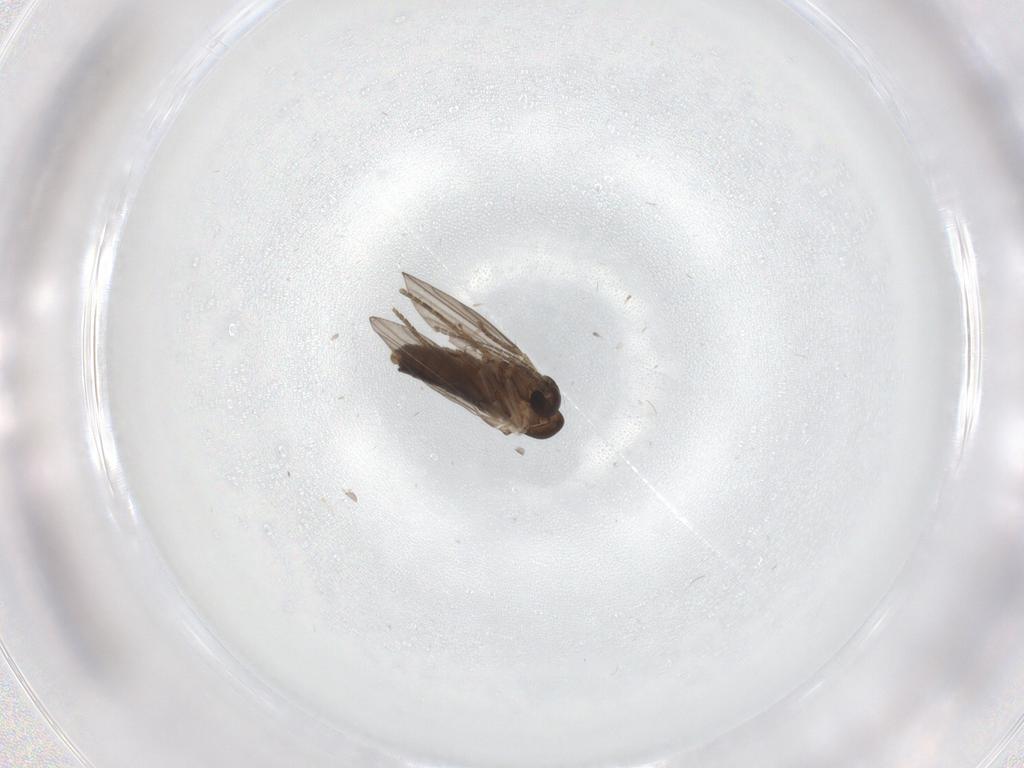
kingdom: Animalia
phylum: Arthropoda
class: Insecta
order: Diptera
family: Psychodidae
